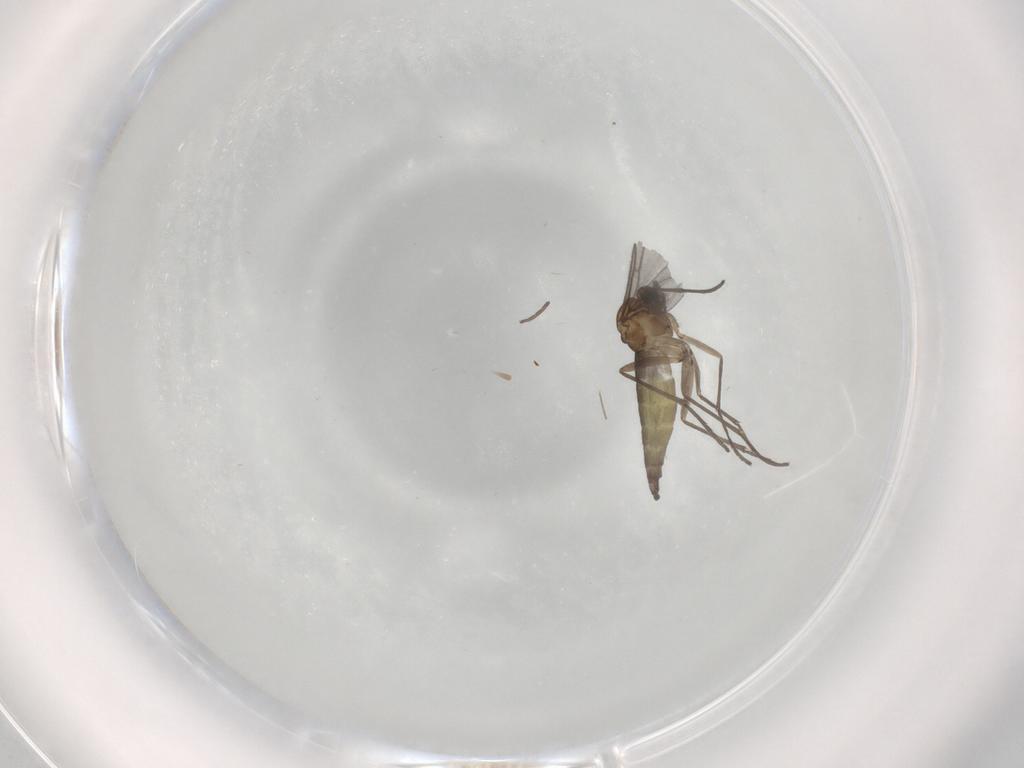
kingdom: Animalia
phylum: Arthropoda
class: Insecta
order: Diptera
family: Sciaridae
